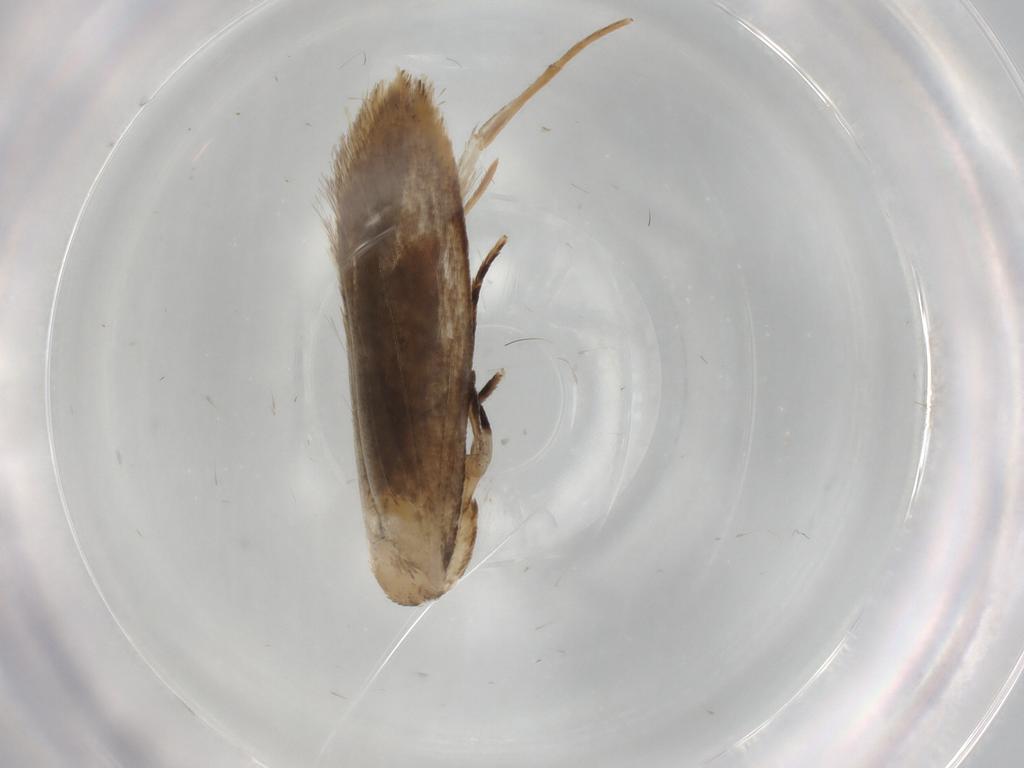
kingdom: Animalia
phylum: Arthropoda
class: Insecta
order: Lepidoptera
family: Tineidae
